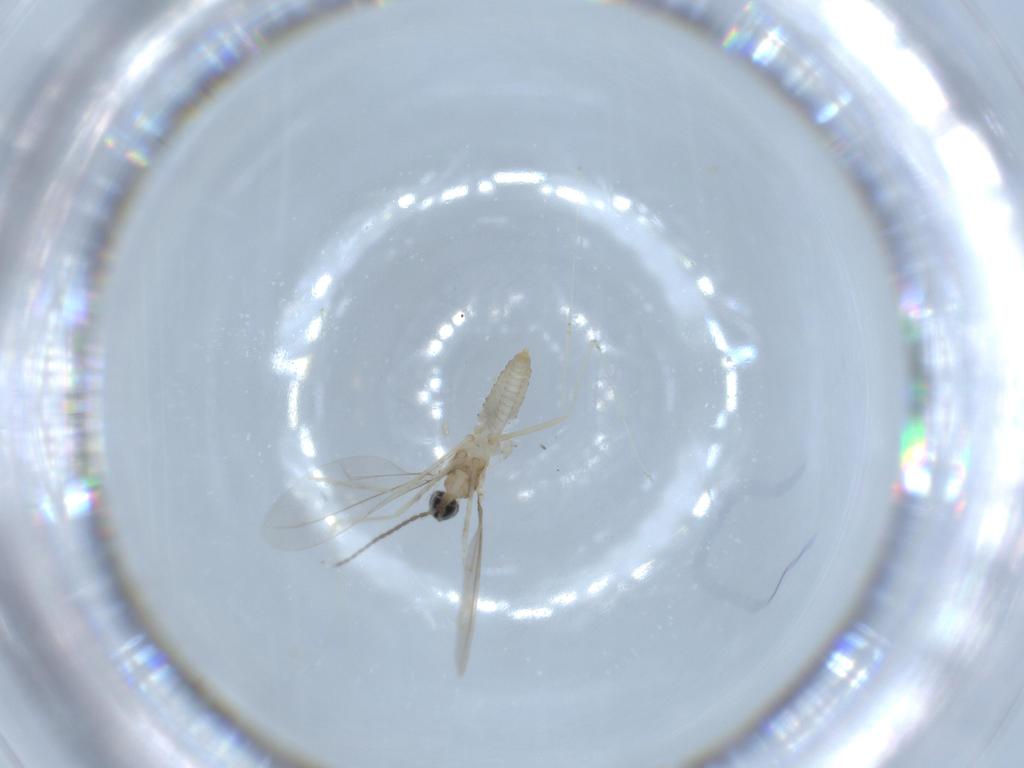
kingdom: Animalia
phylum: Arthropoda
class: Insecta
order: Diptera
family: Cecidomyiidae
